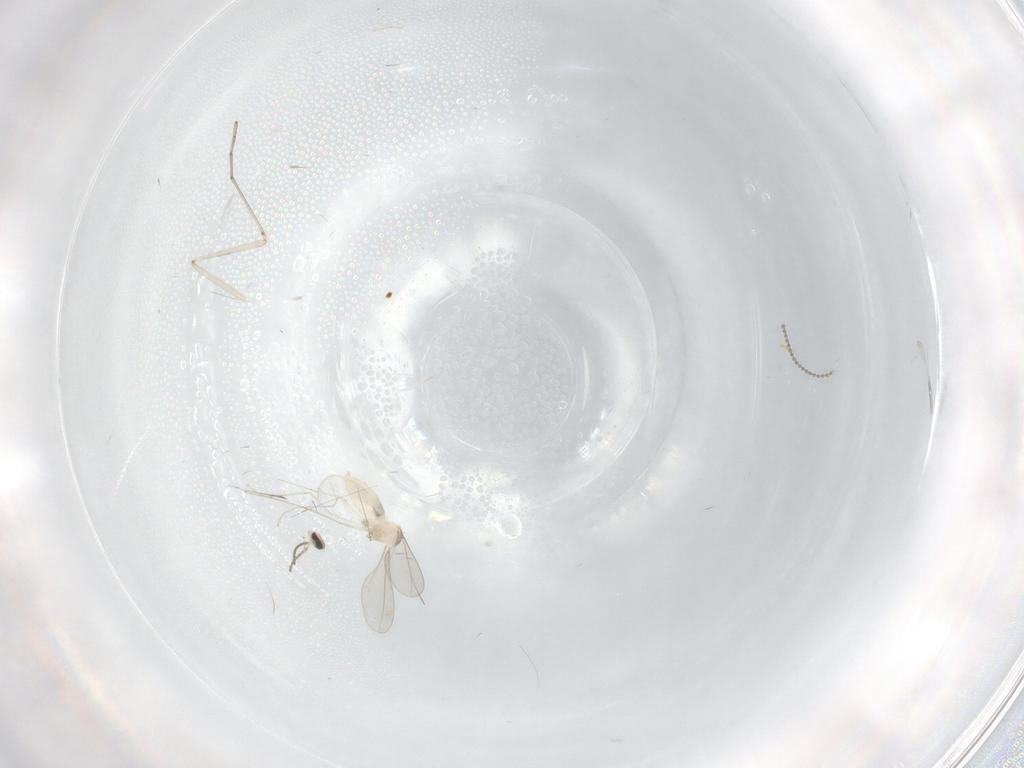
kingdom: Animalia
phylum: Arthropoda
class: Insecta
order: Diptera
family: Cecidomyiidae
